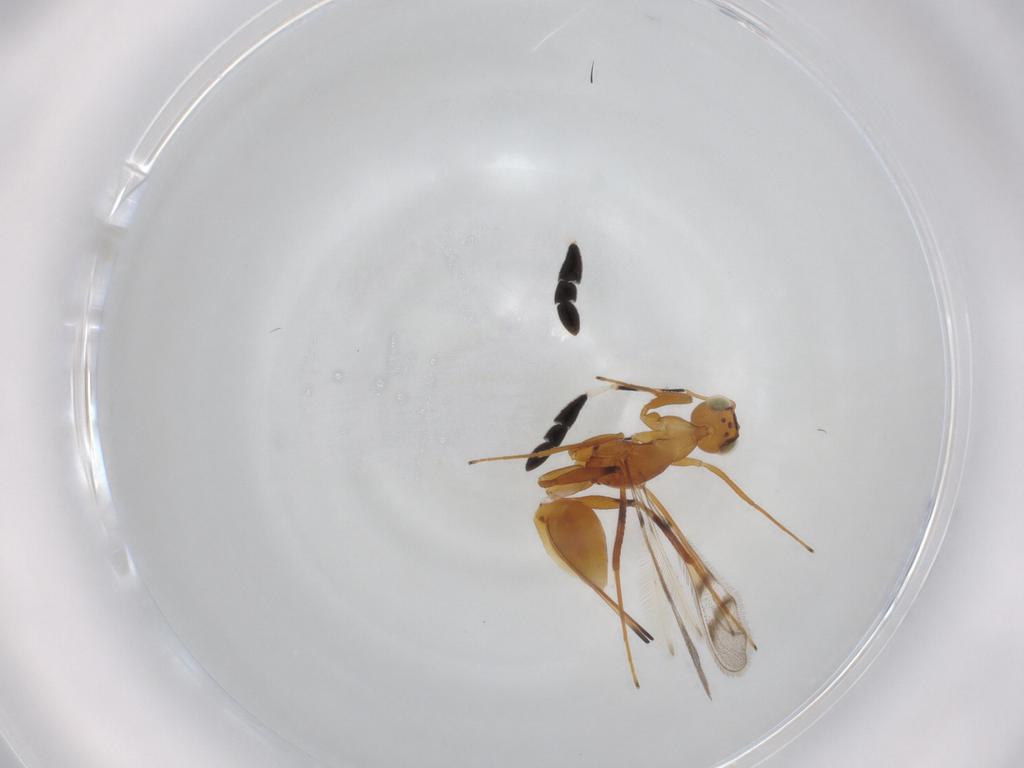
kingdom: Animalia
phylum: Arthropoda
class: Insecta
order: Hymenoptera
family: Mymaridae
